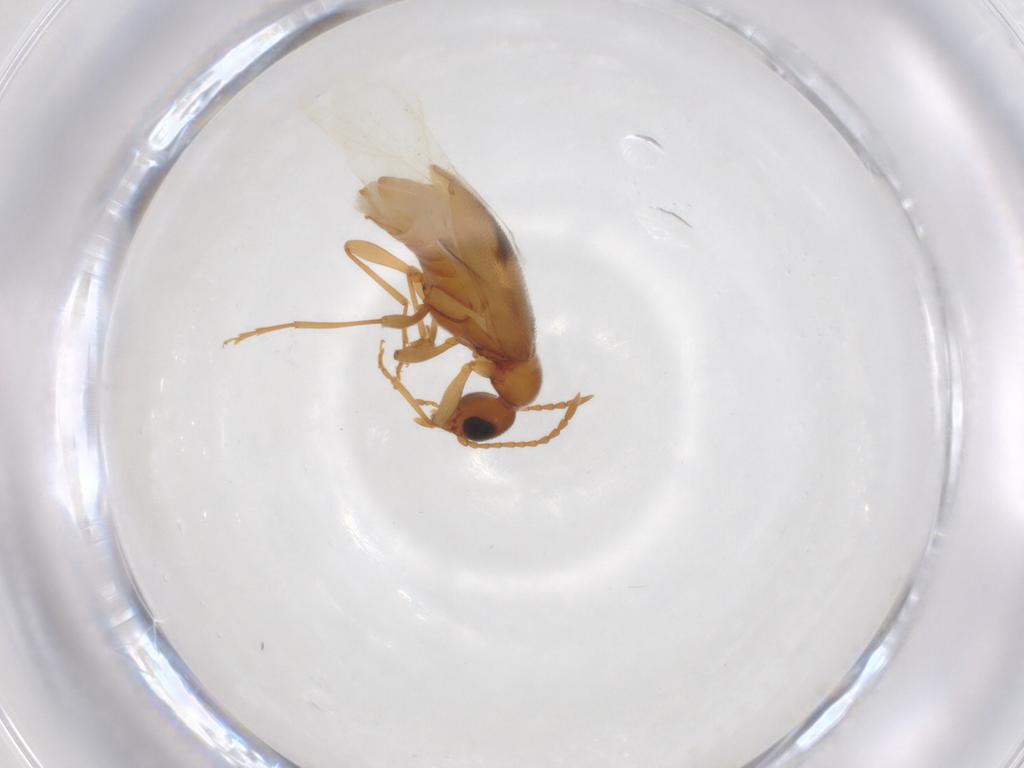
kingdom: Animalia
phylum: Arthropoda
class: Insecta
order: Coleoptera
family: Anthicidae
